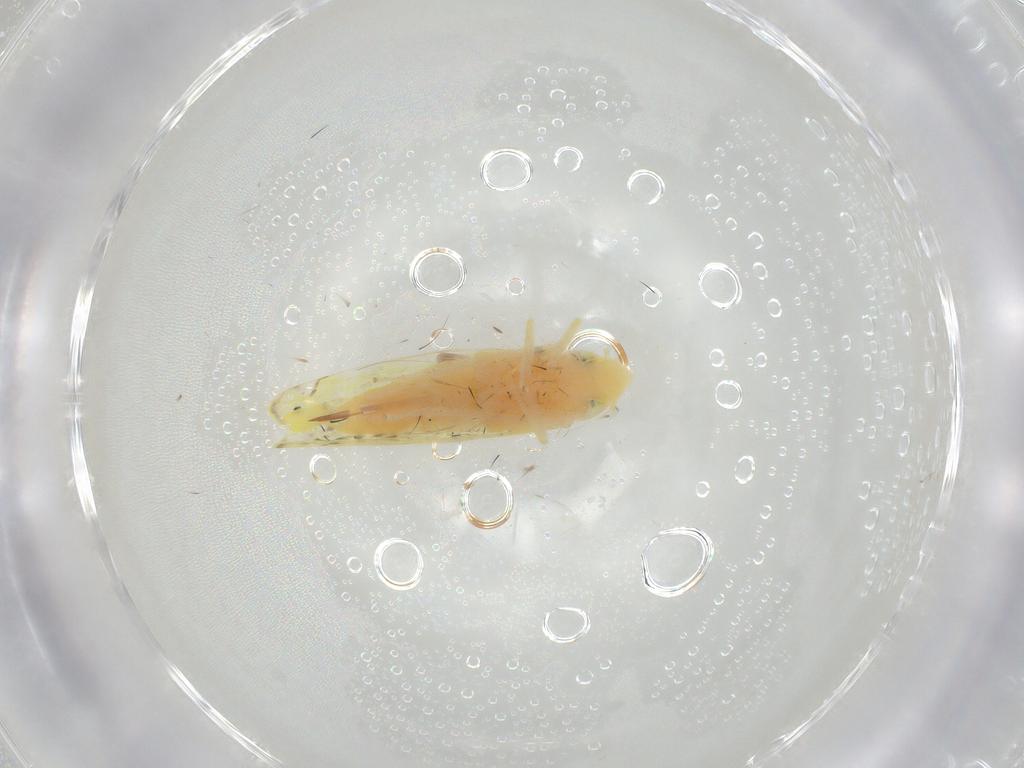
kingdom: Animalia
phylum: Arthropoda
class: Insecta
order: Hemiptera
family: Cicadellidae
